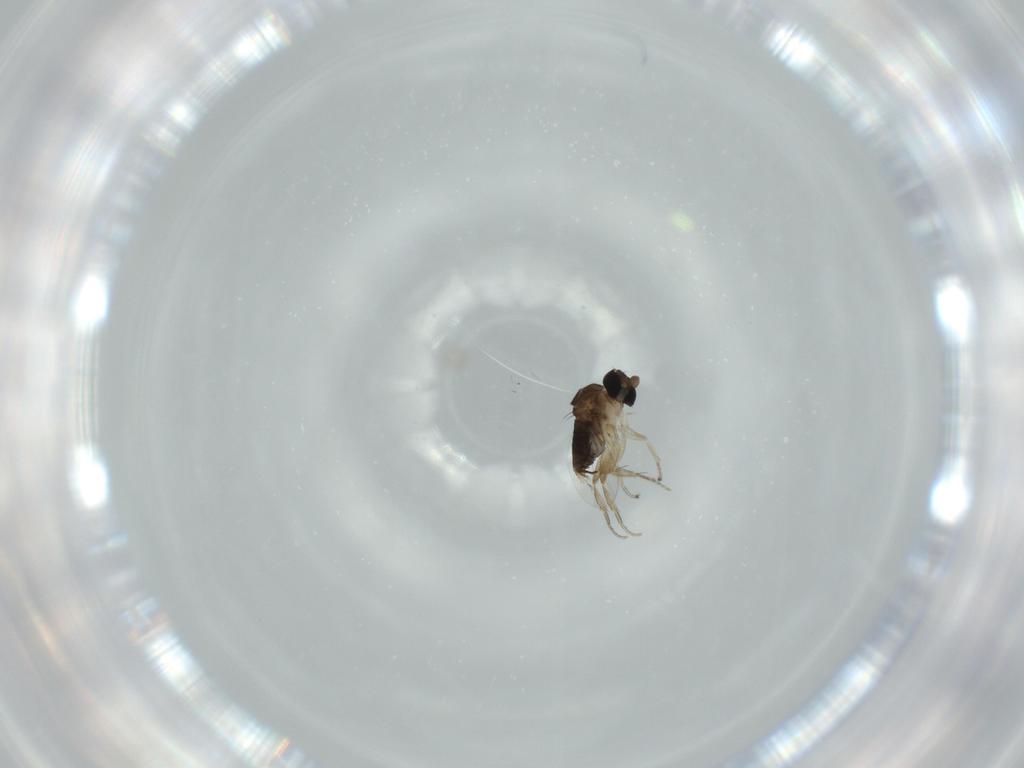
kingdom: Animalia
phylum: Arthropoda
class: Insecta
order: Diptera
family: Phoridae
